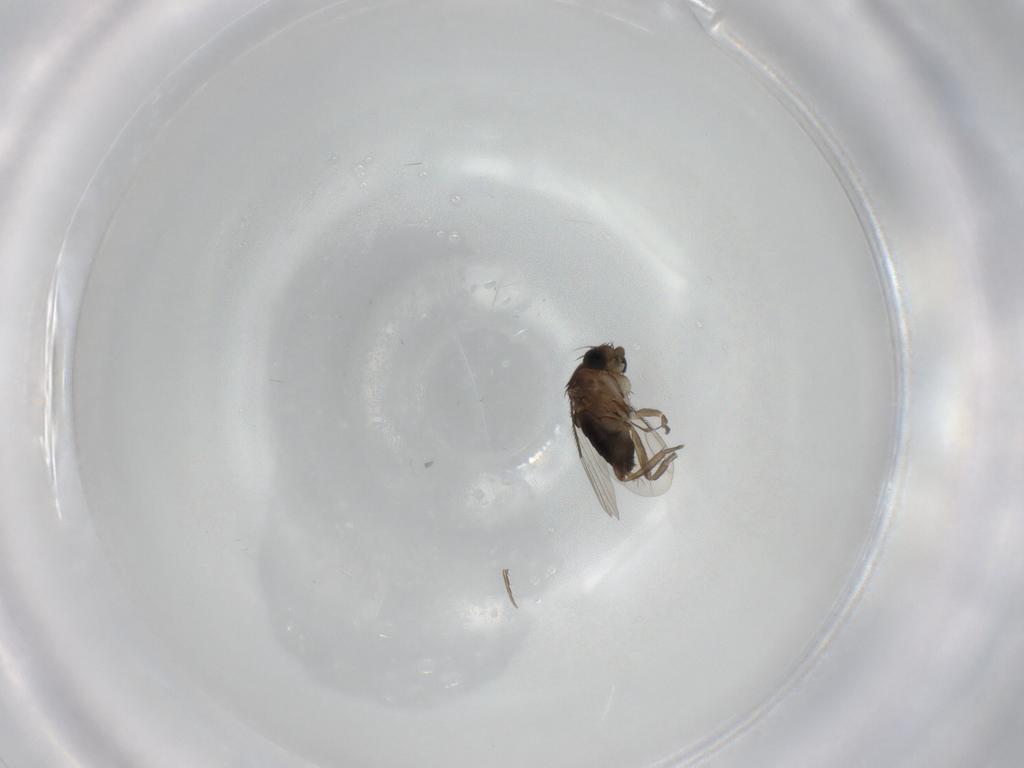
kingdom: Animalia
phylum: Arthropoda
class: Insecta
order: Diptera
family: Phoridae
